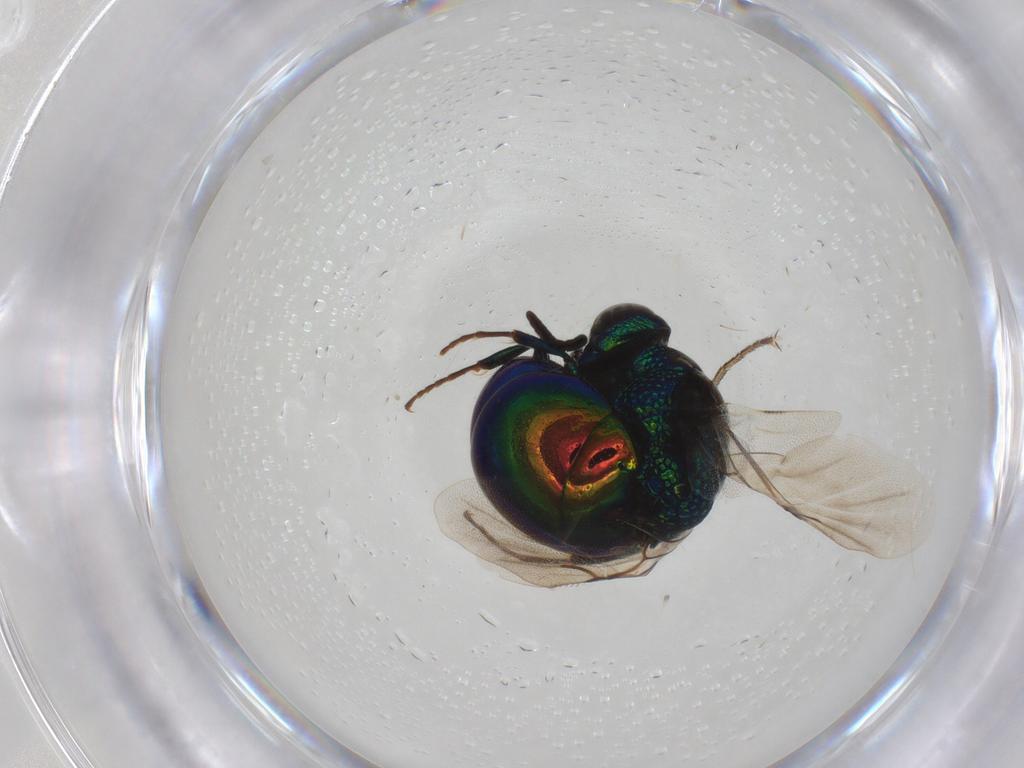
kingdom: Animalia
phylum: Arthropoda
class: Insecta
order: Hymenoptera
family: Chrysididae
